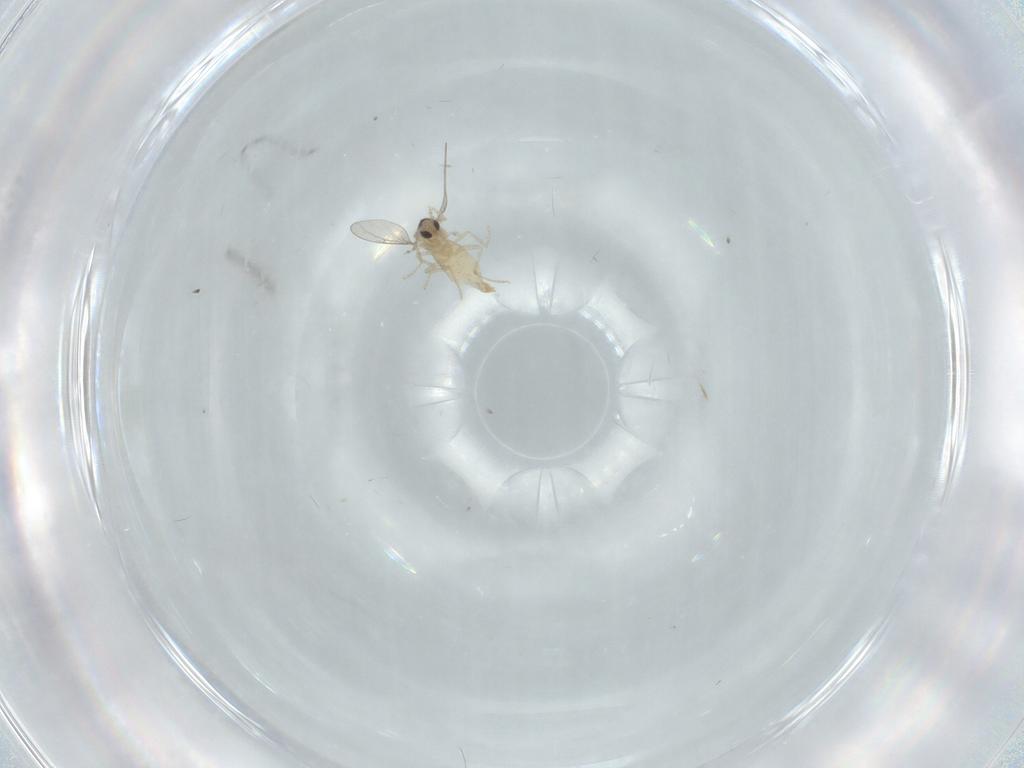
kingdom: Animalia
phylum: Arthropoda
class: Insecta
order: Diptera
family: Cecidomyiidae
